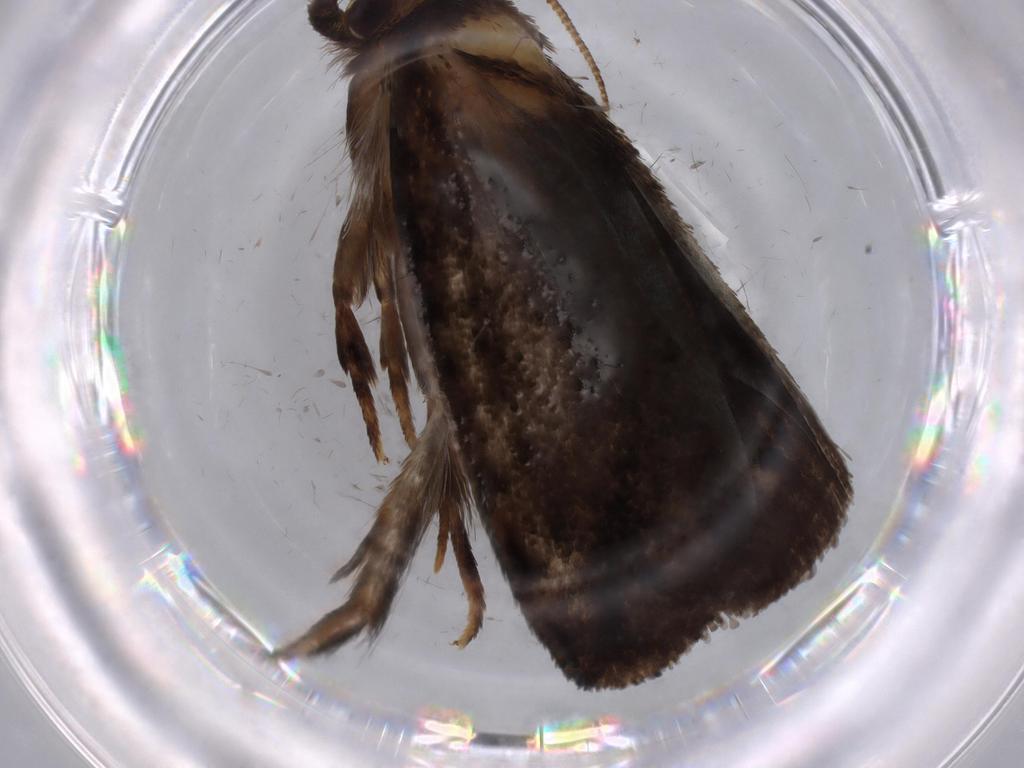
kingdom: Animalia
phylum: Arthropoda
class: Insecta
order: Lepidoptera
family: Tineidae
